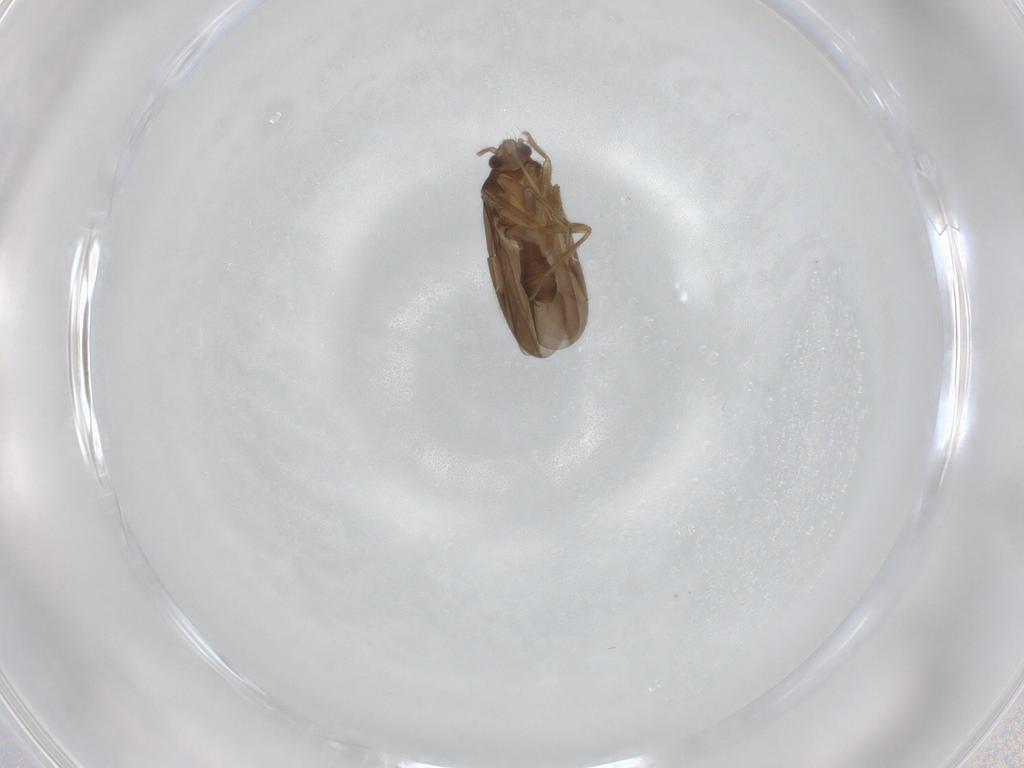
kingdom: Animalia
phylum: Arthropoda
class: Insecta
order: Hemiptera
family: Ceratocombidae
